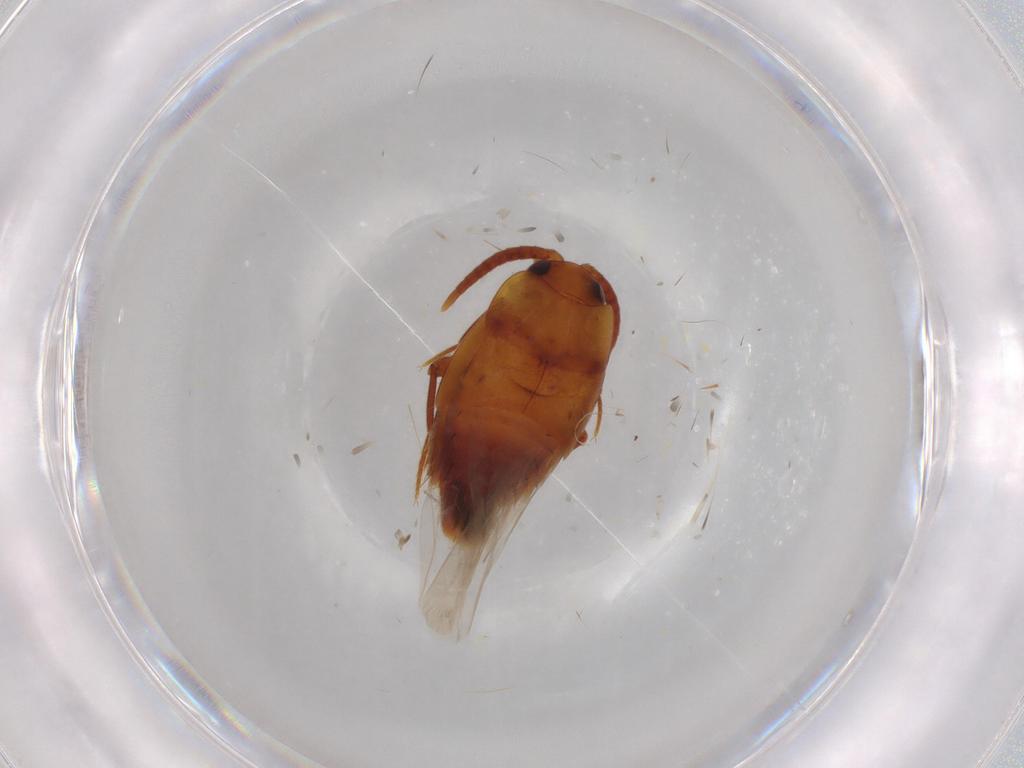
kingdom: Animalia
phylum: Arthropoda
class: Insecta
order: Coleoptera
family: Staphylinidae
